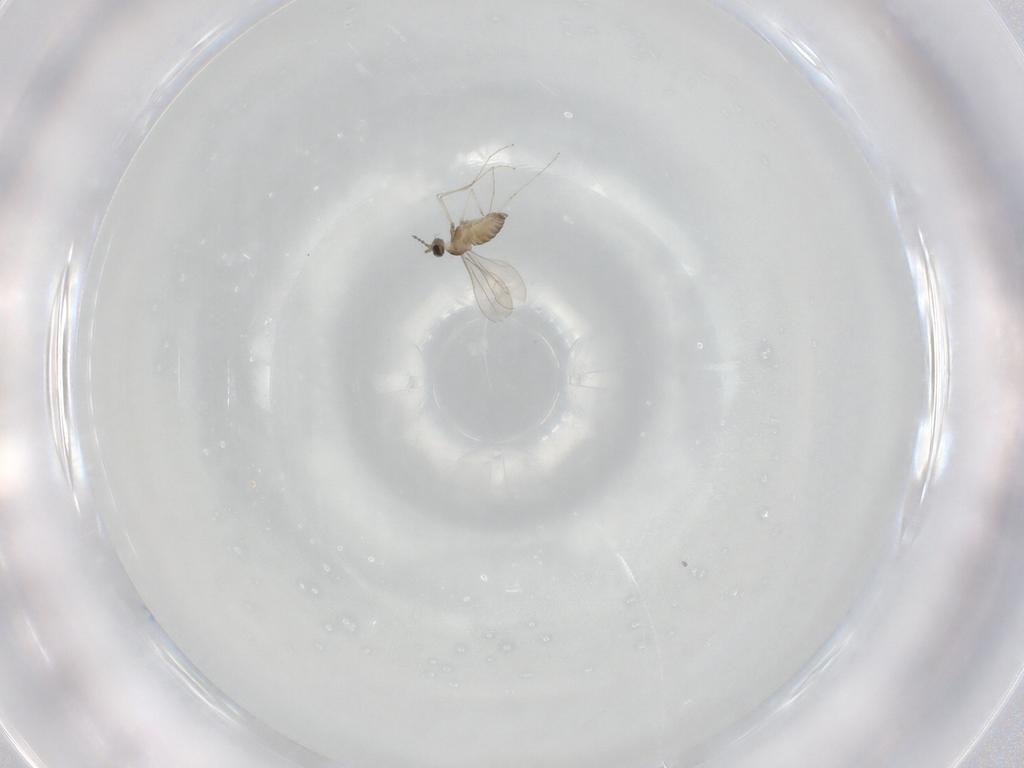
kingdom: Animalia
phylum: Arthropoda
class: Insecta
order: Diptera
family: Cecidomyiidae
